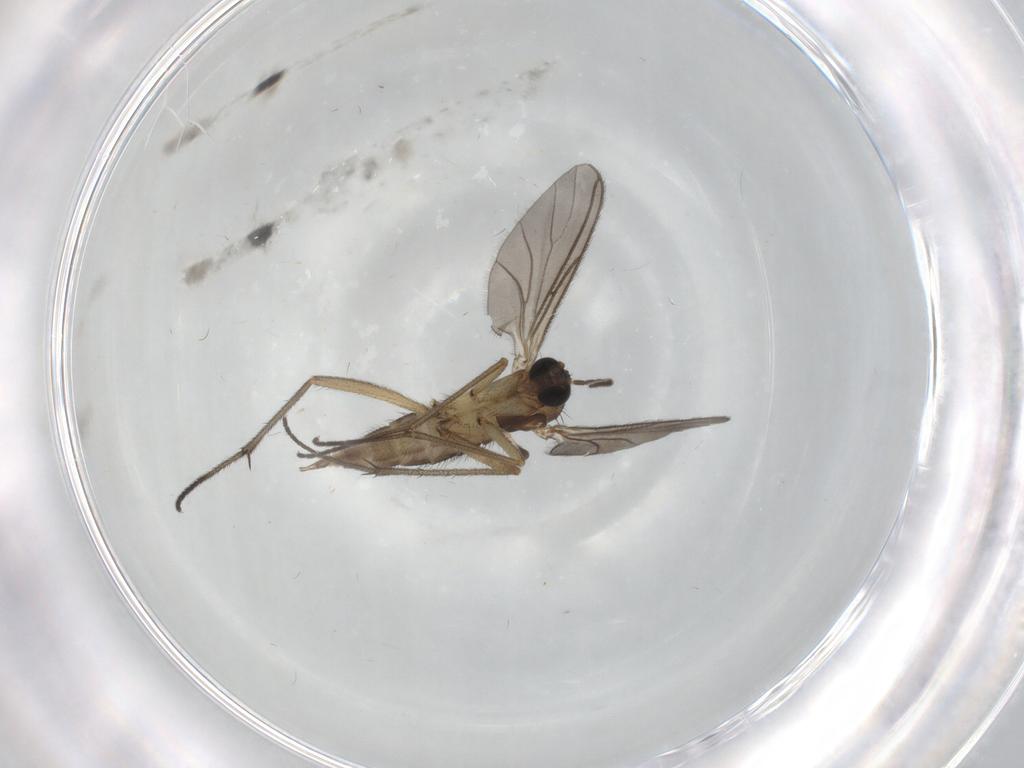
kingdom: Animalia
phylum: Arthropoda
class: Insecta
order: Diptera
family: Sciaridae
